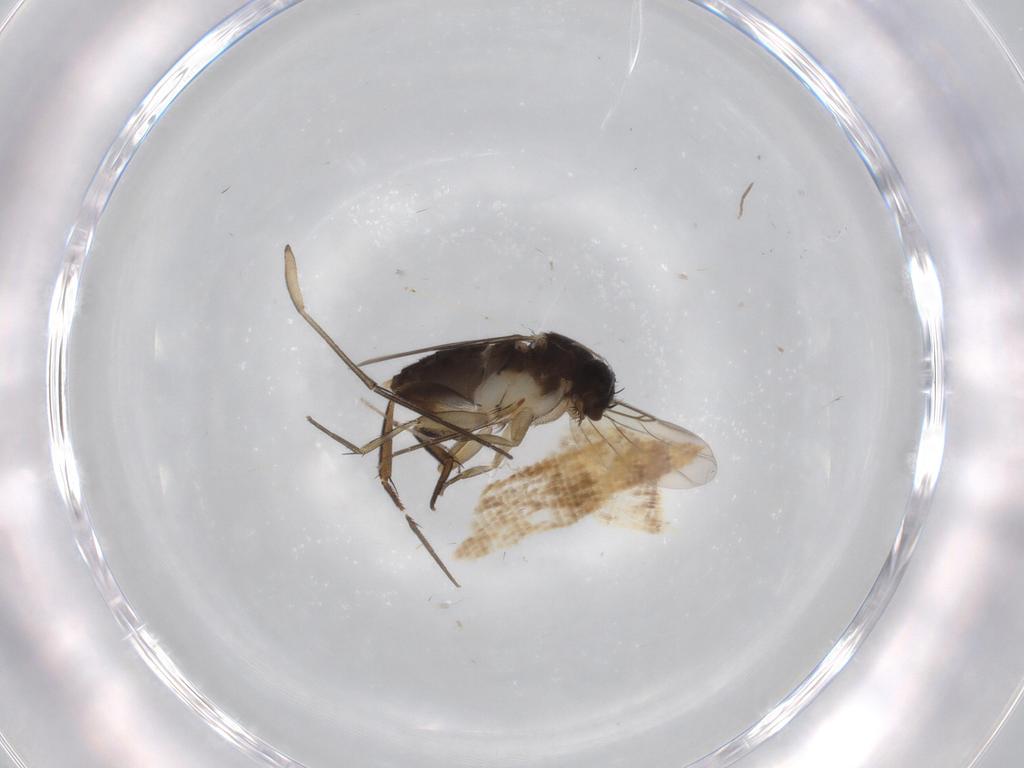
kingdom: Animalia
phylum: Arthropoda
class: Insecta
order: Diptera
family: Phoridae
